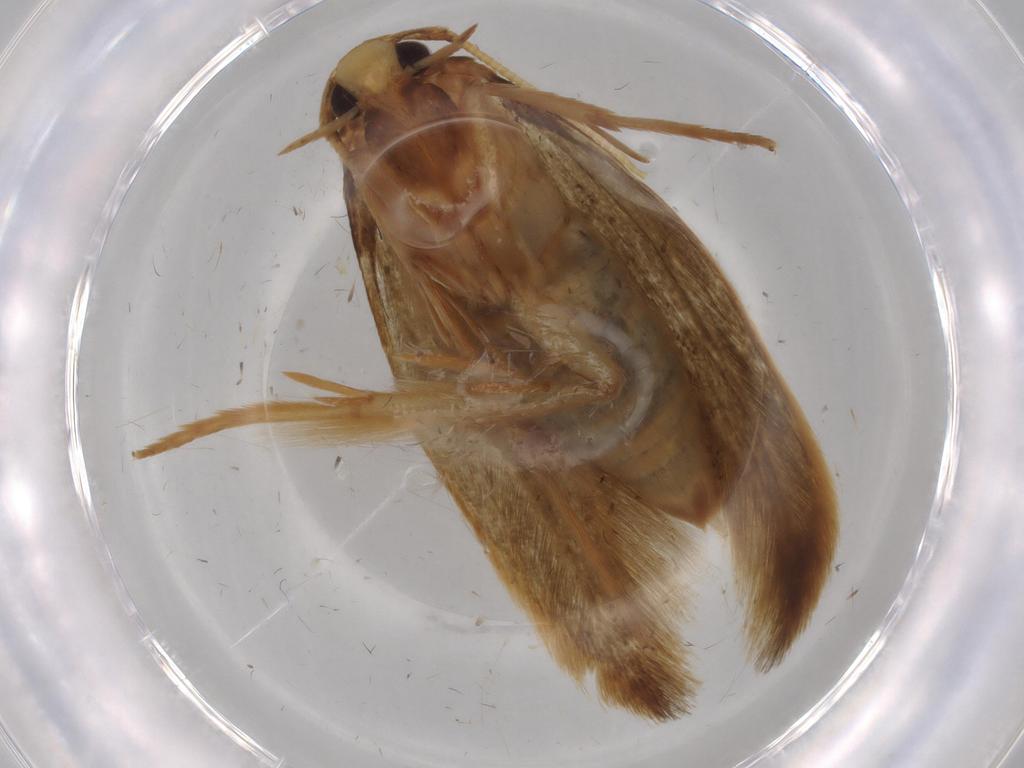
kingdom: Animalia
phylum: Arthropoda
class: Insecta
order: Lepidoptera
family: Tineidae
